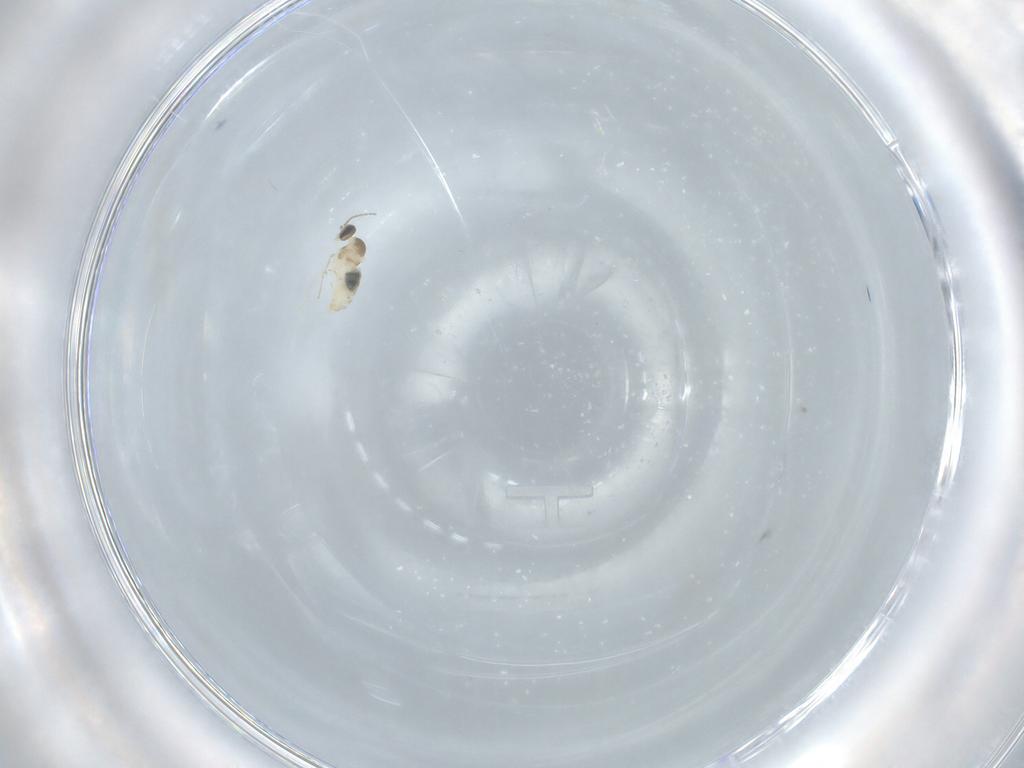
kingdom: Animalia
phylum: Arthropoda
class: Insecta
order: Diptera
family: Cecidomyiidae
